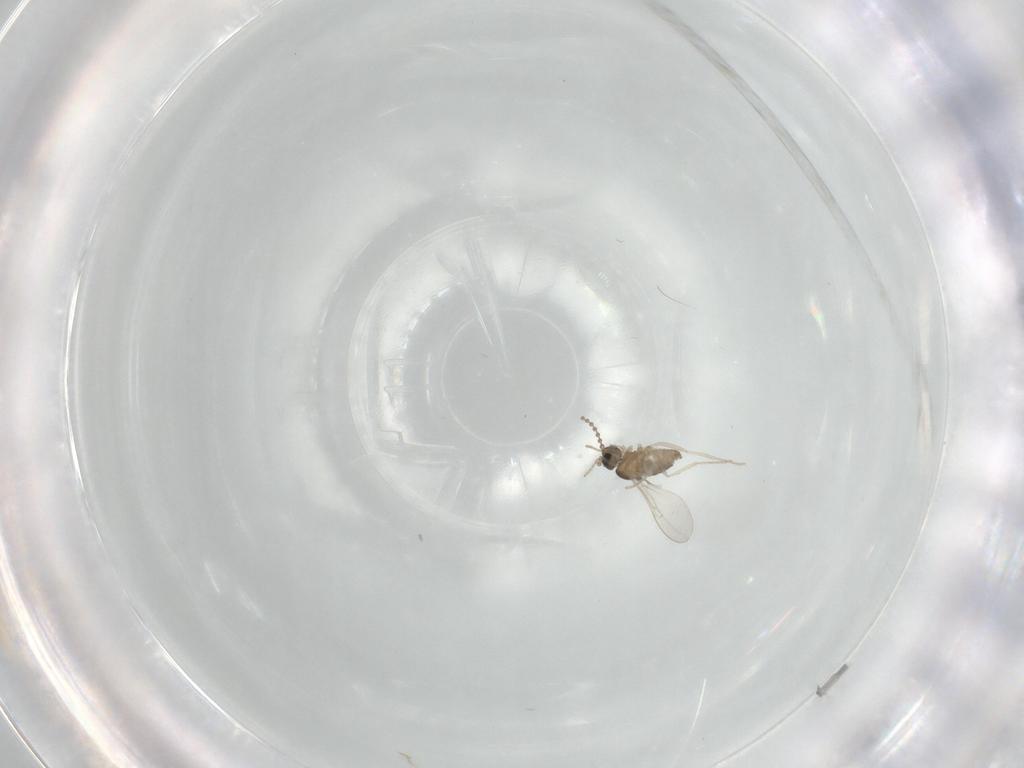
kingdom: Animalia
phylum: Arthropoda
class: Insecta
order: Diptera
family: Cecidomyiidae
